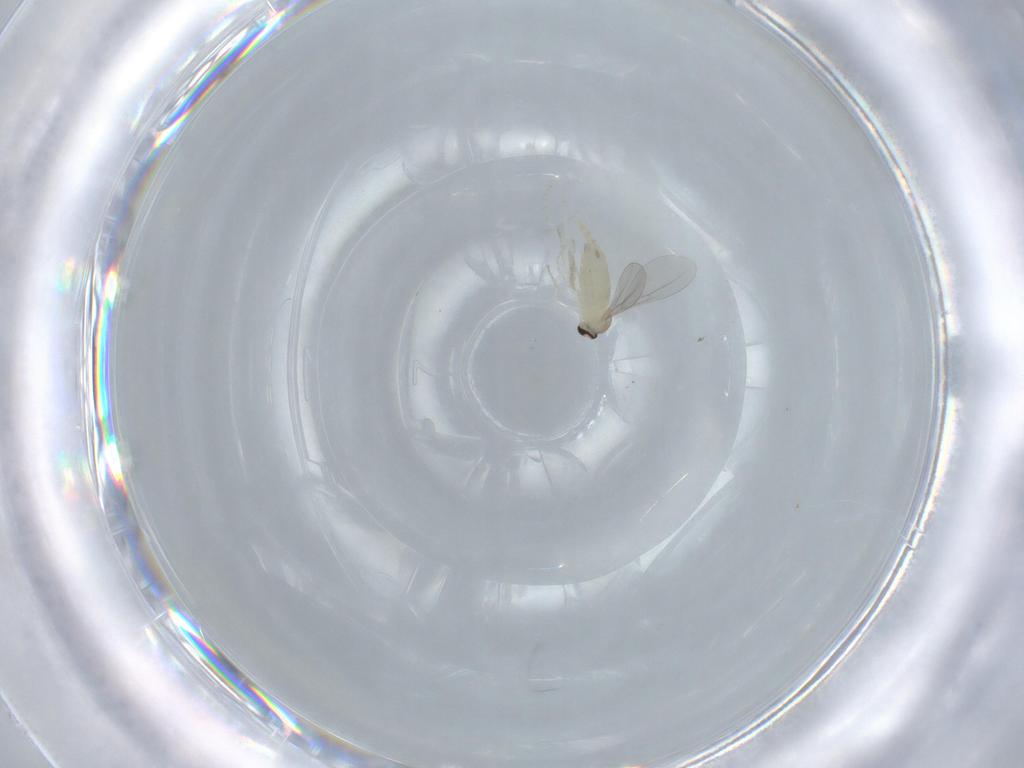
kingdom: Animalia
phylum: Arthropoda
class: Insecta
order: Diptera
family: Cecidomyiidae
